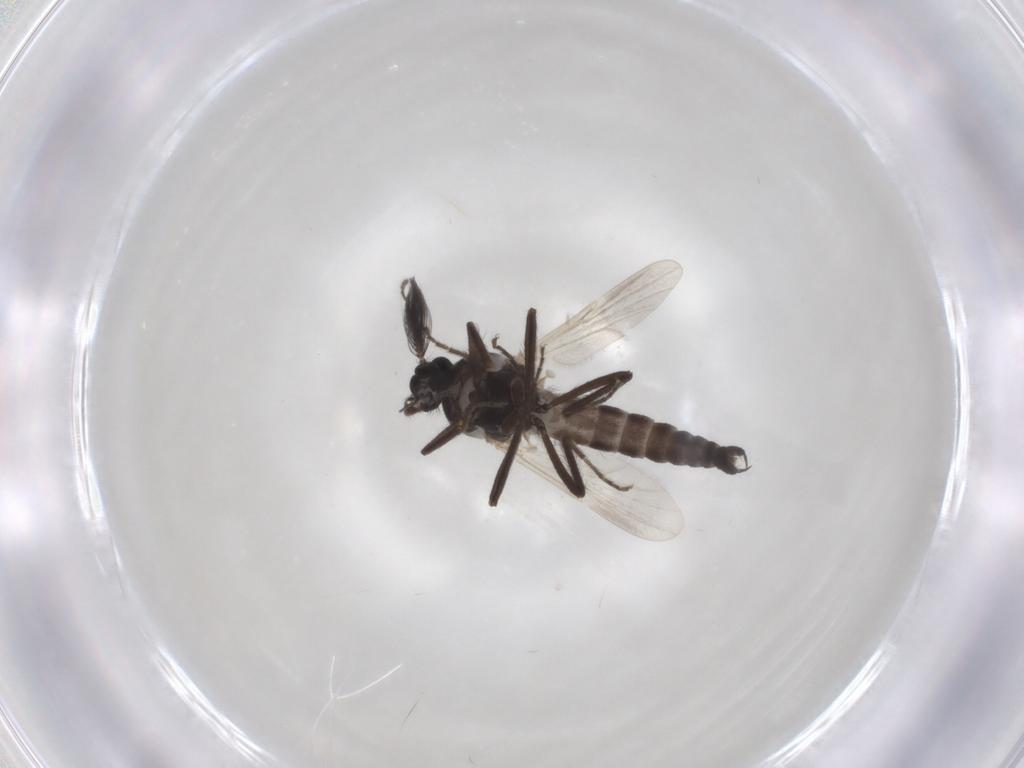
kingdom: Animalia
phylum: Arthropoda
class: Insecta
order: Diptera
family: Ceratopogonidae
